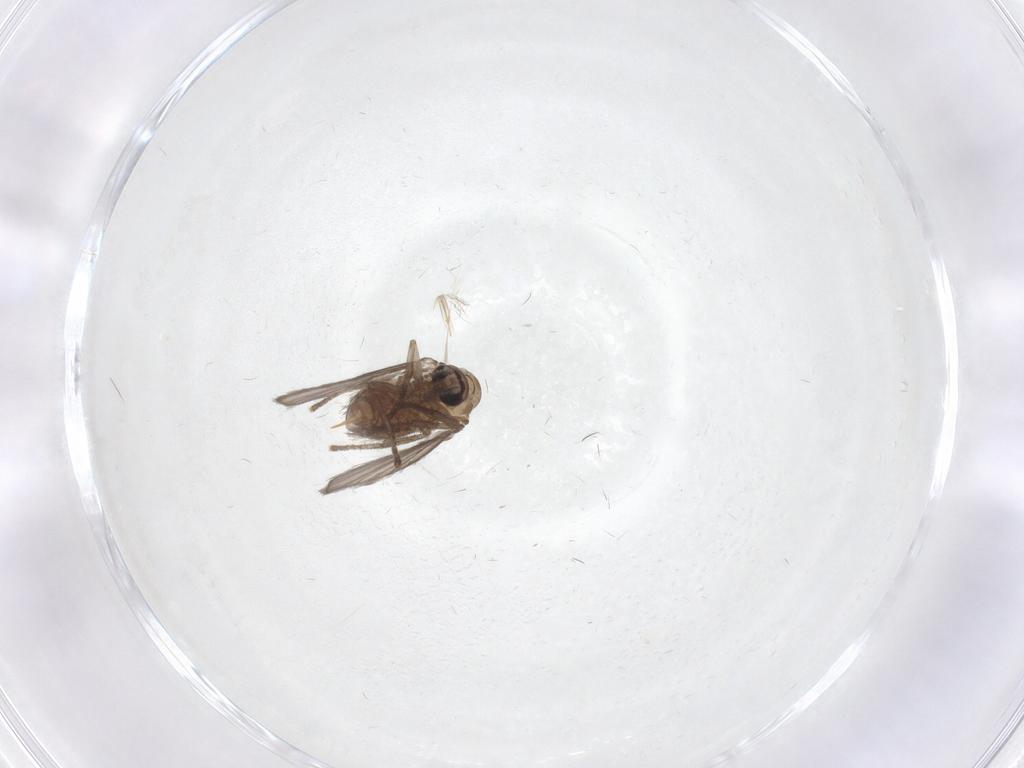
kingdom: Animalia
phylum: Arthropoda
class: Insecta
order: Diptera
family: Psychodidae
